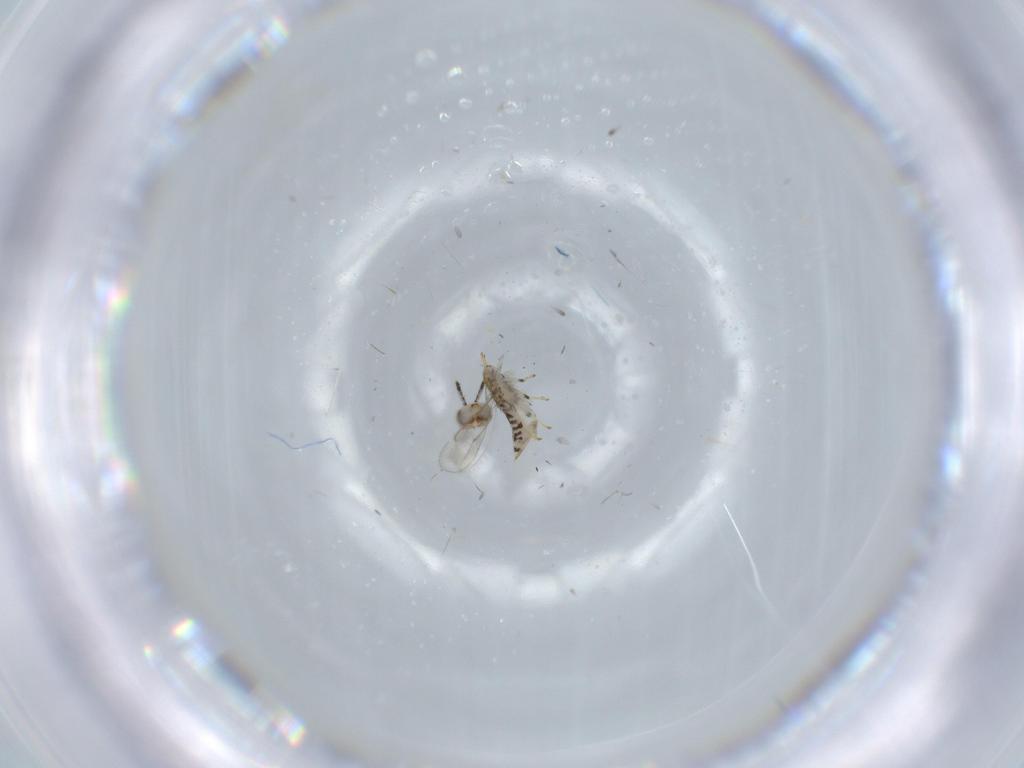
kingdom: Animalia
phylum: Arthropoda
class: Insecta
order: Hymenoptera
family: Aphelinidae
